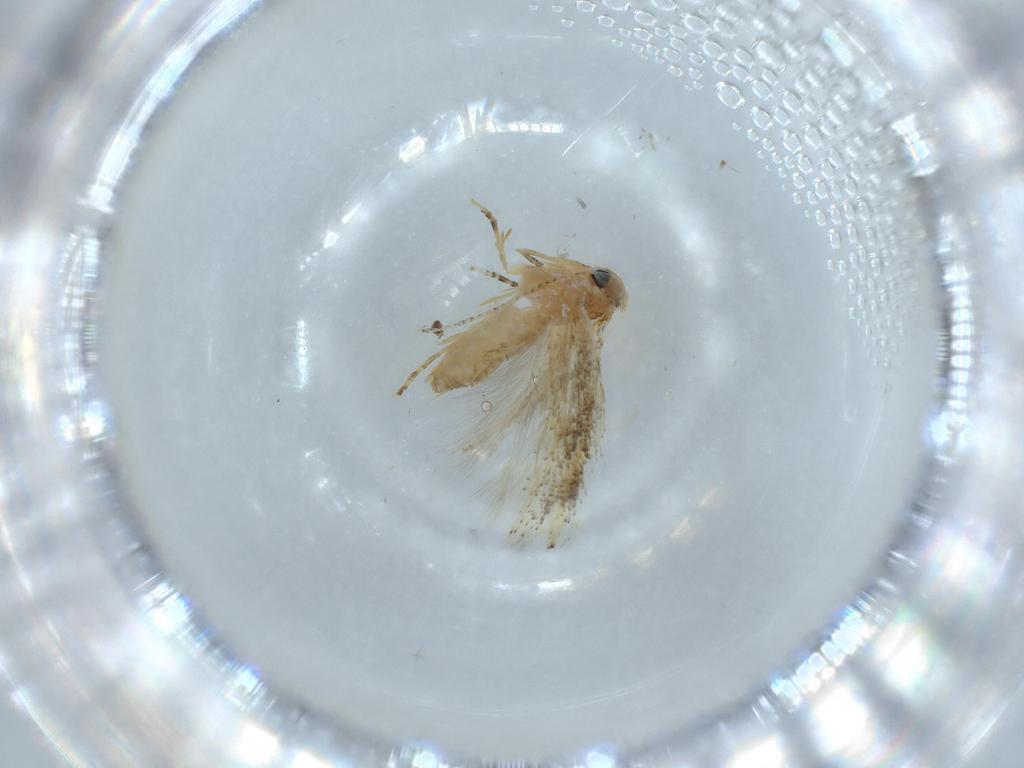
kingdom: Animalia
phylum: Arthropoda
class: Insecta
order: Lepidoptera
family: Bucculatricidae
